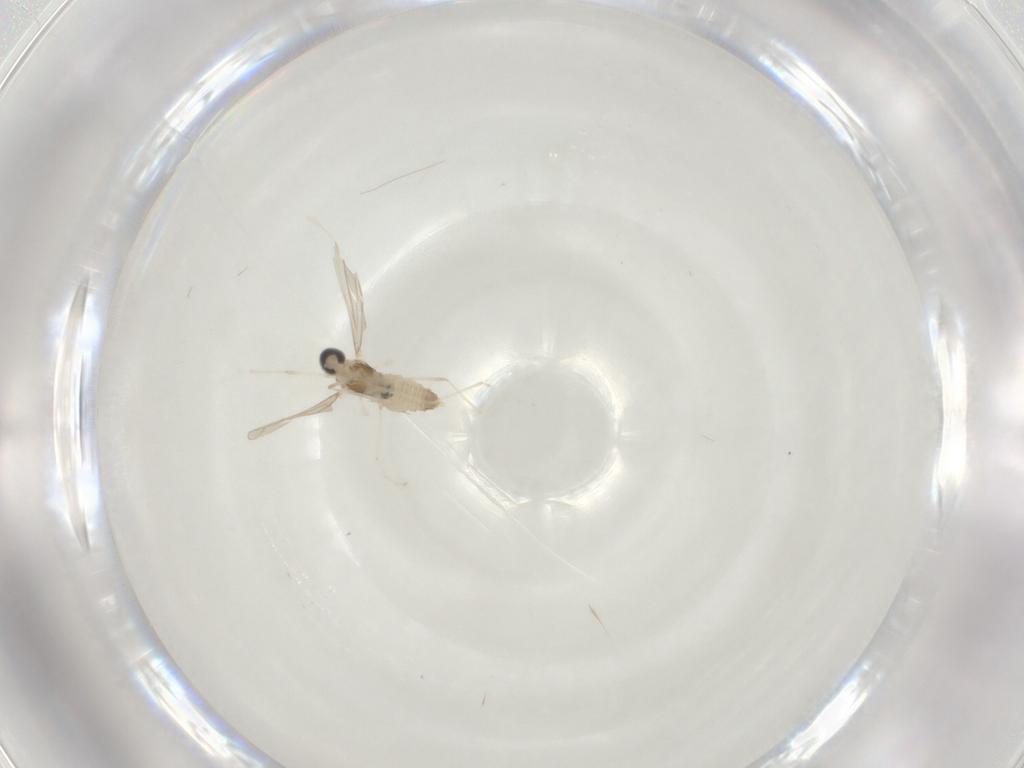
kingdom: Animalia
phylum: Arthropoda
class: Insecta
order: Diptera
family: Cecidomyiidae
